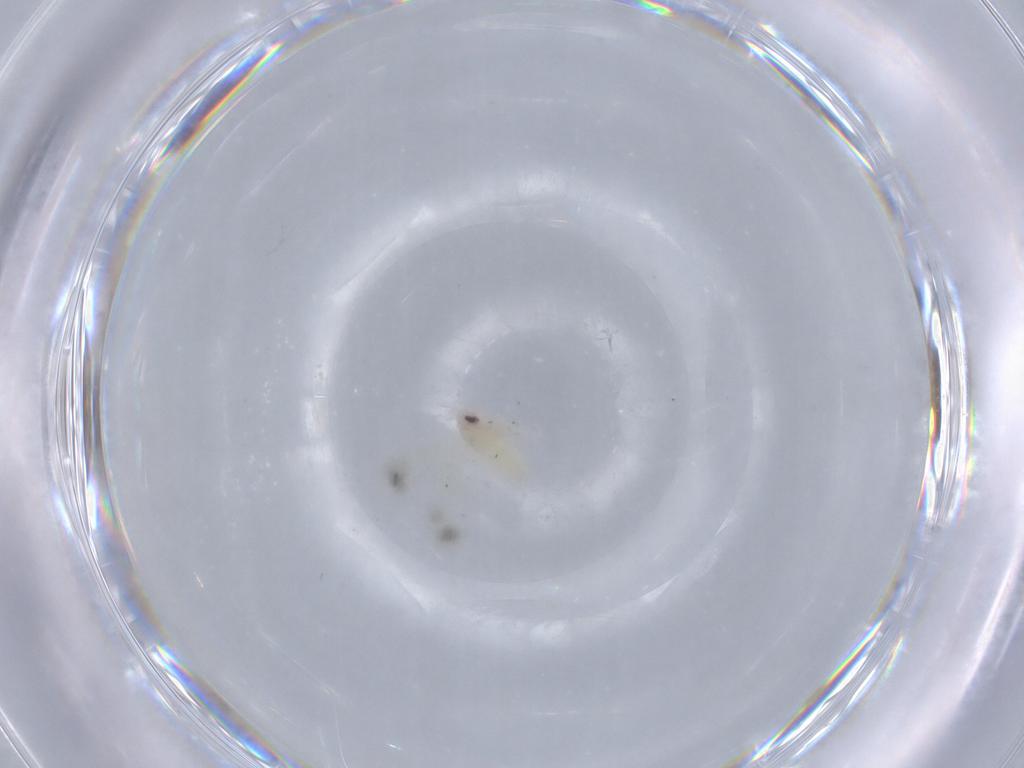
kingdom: Animalia
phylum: Arthropoda
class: Insecta
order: Hemiptera
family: Aleyrodidae
